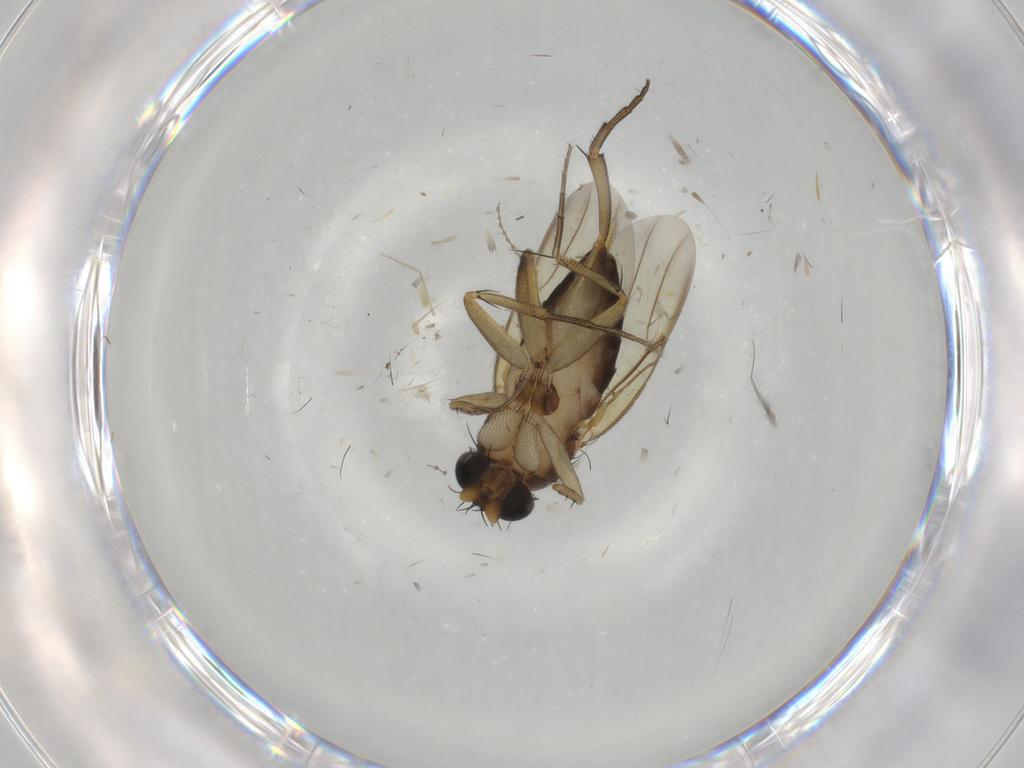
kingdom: Animalia
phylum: Arthropoda
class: Insecta
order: Diptera
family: Phoridae
